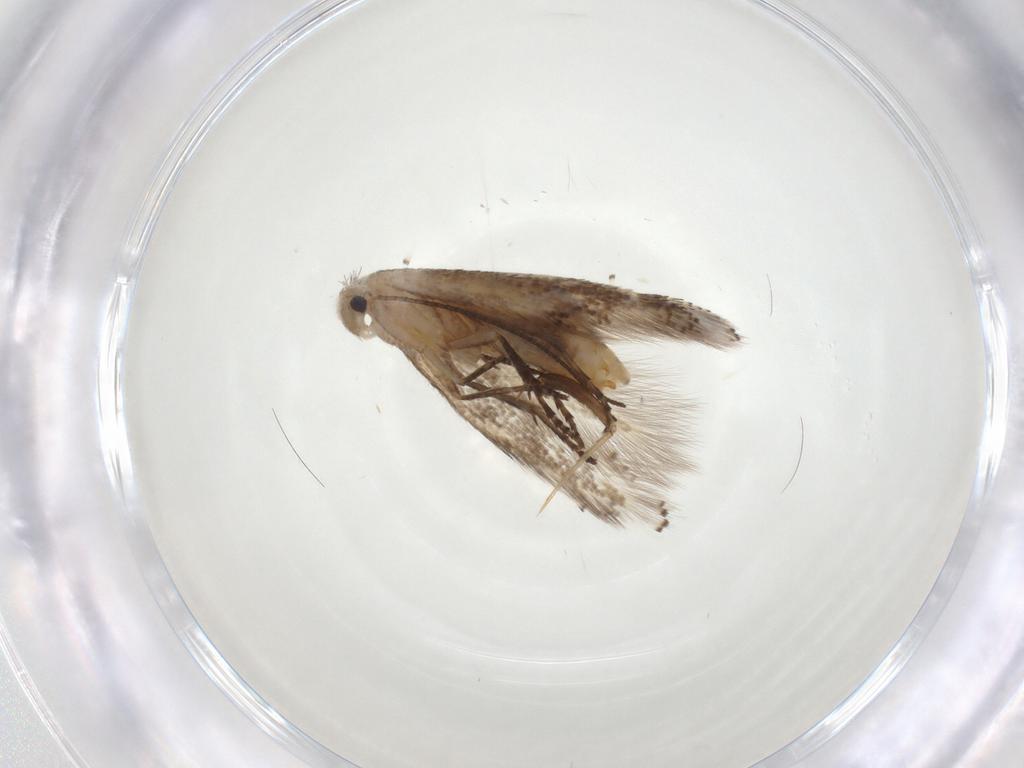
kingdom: Animalia
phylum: Arthropoda
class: Insecta
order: Lepidoptera
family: Bucculatricidae
